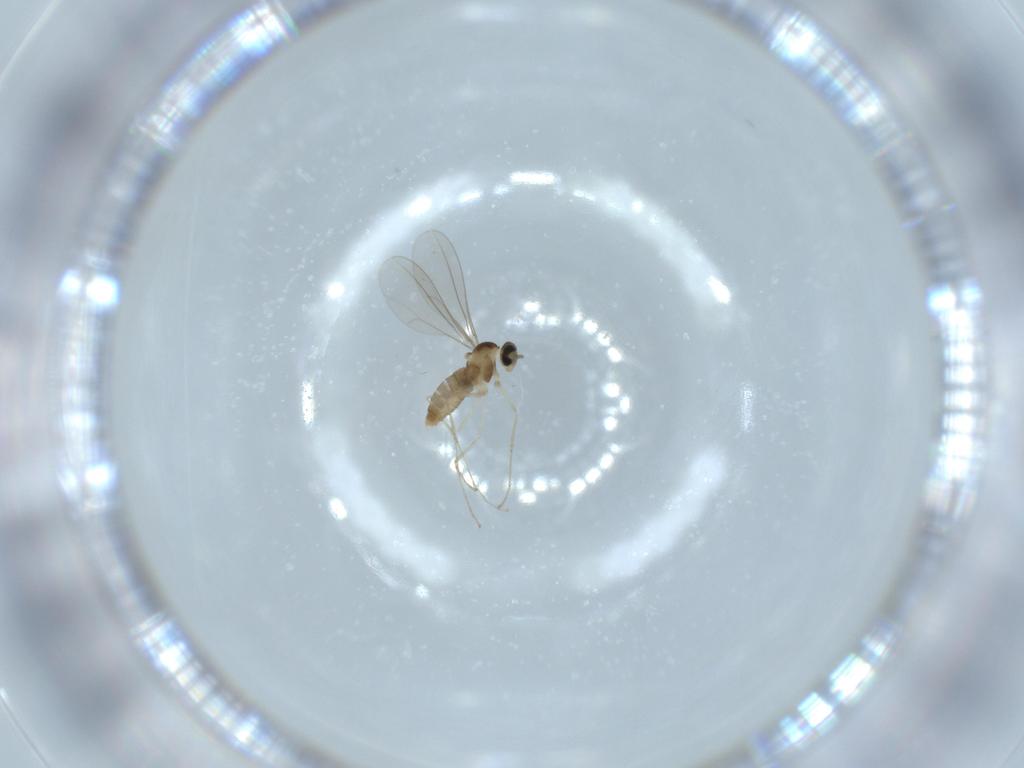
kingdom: Animalia
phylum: Arthropoda
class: Insecta
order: Diptera
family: Cecidomyiidae
